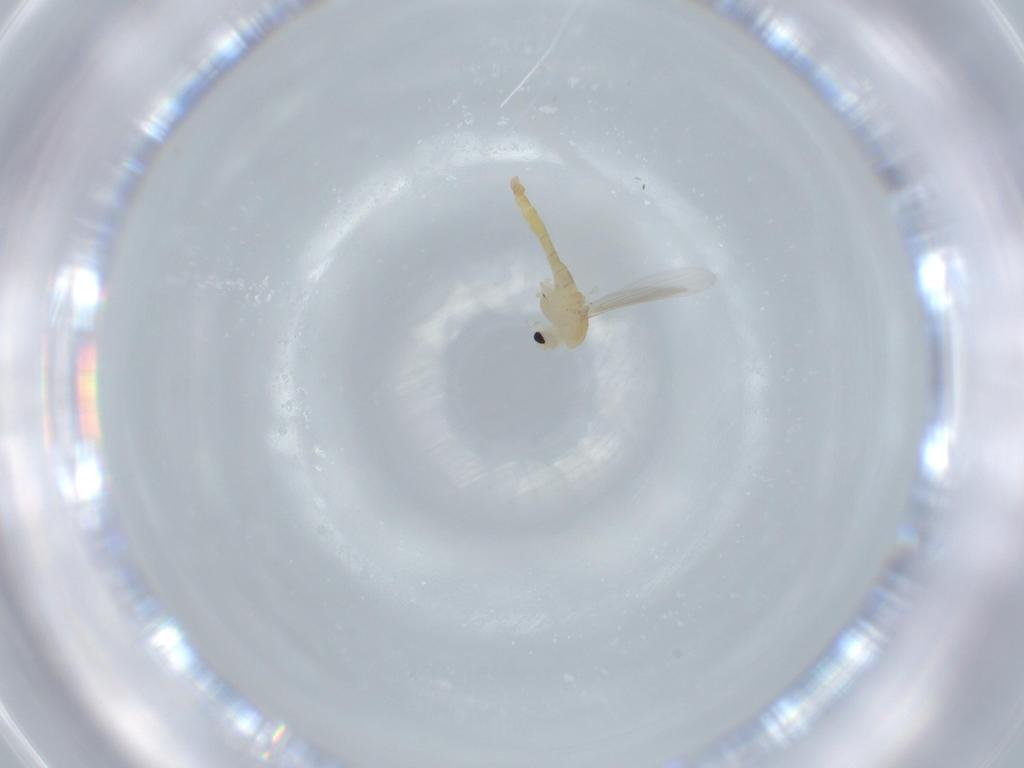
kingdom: Animalia
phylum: Arthropoda
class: Insecta
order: Diptera
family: Chironomidae
